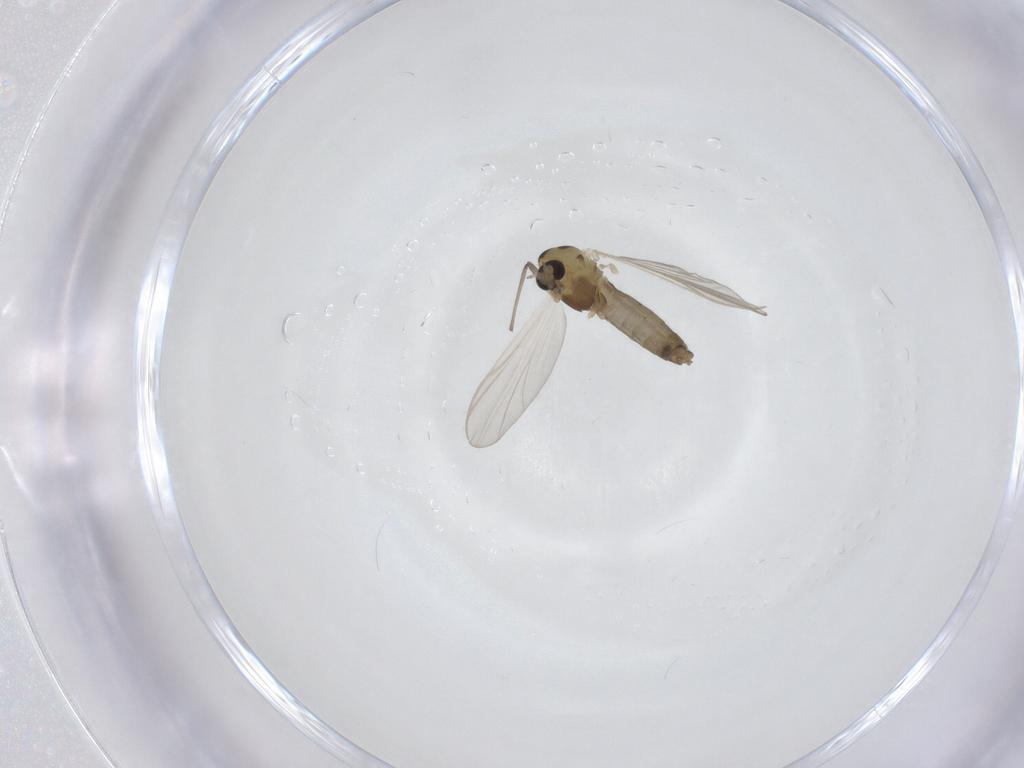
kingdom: Animalia
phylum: Arthropoda
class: Insecta
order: Diptera
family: Chironomidae
